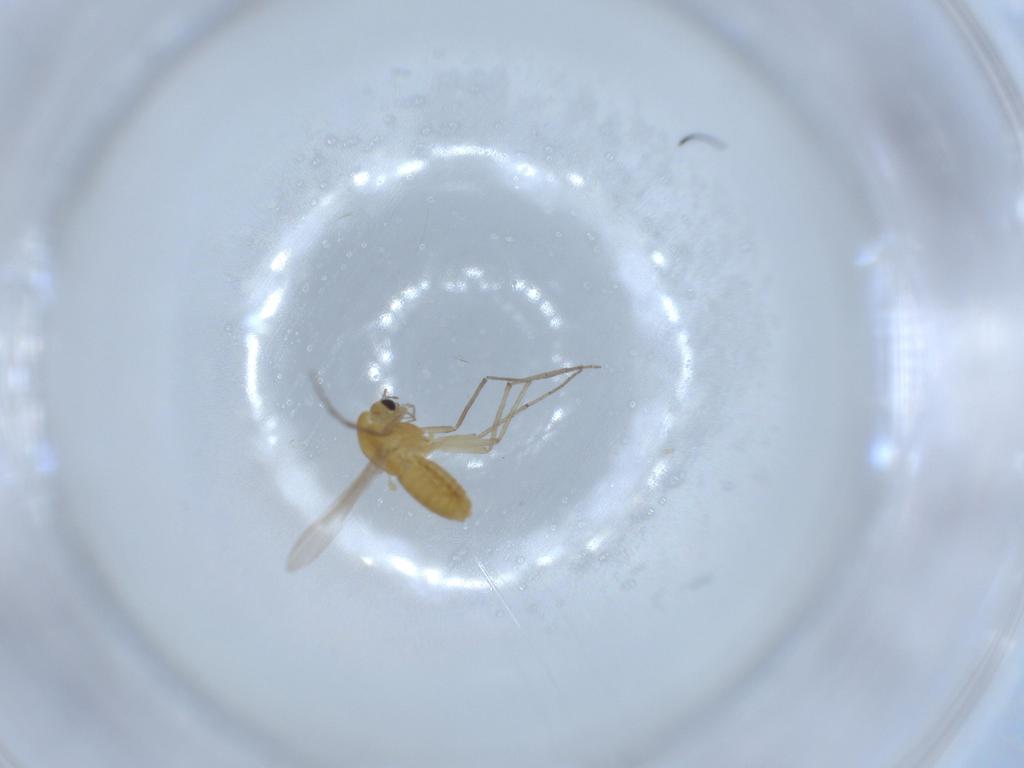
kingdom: Animalia
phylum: Arthropoda
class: Insecta
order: Diptera
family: Chironomidae
